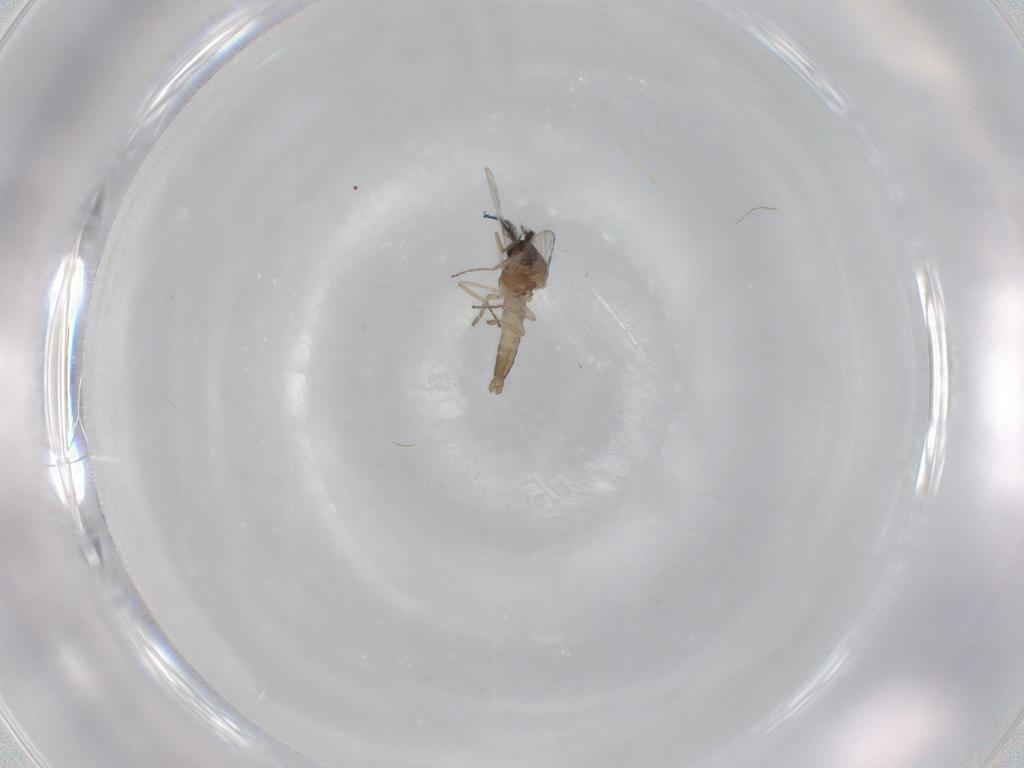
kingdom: Animalia
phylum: Arthropoda
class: Insecta
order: Diptera
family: Ceratopogonidae
